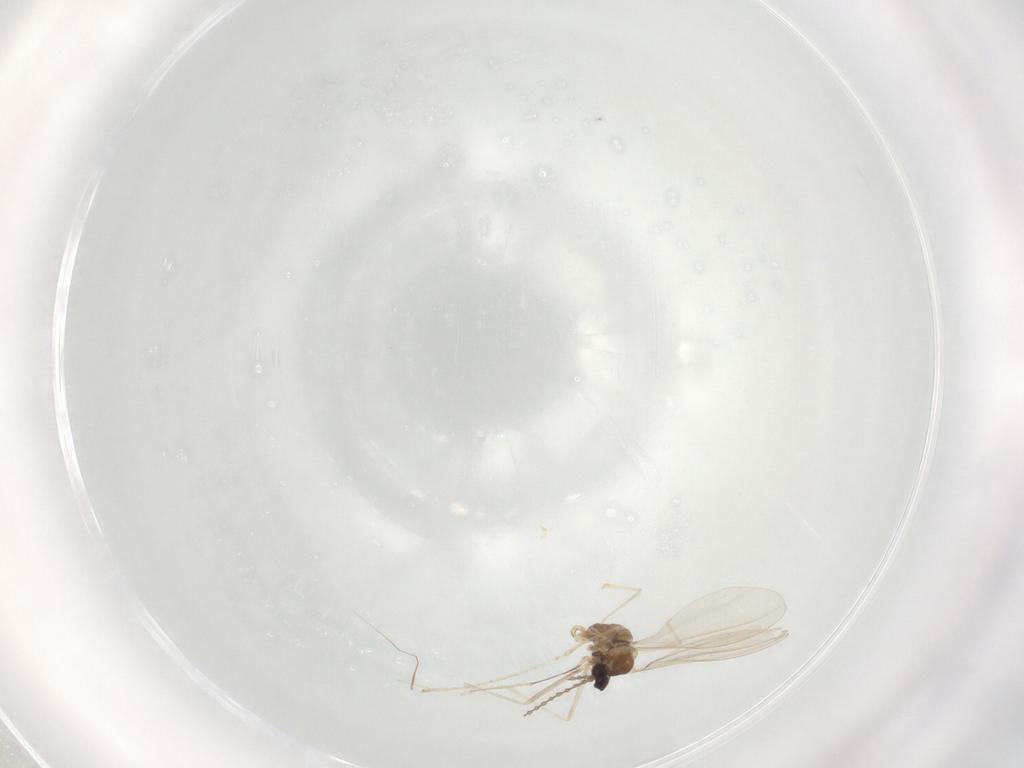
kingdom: Animalia
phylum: Arthropoda
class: Insecta
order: Diptera
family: Cecidomyiidae
